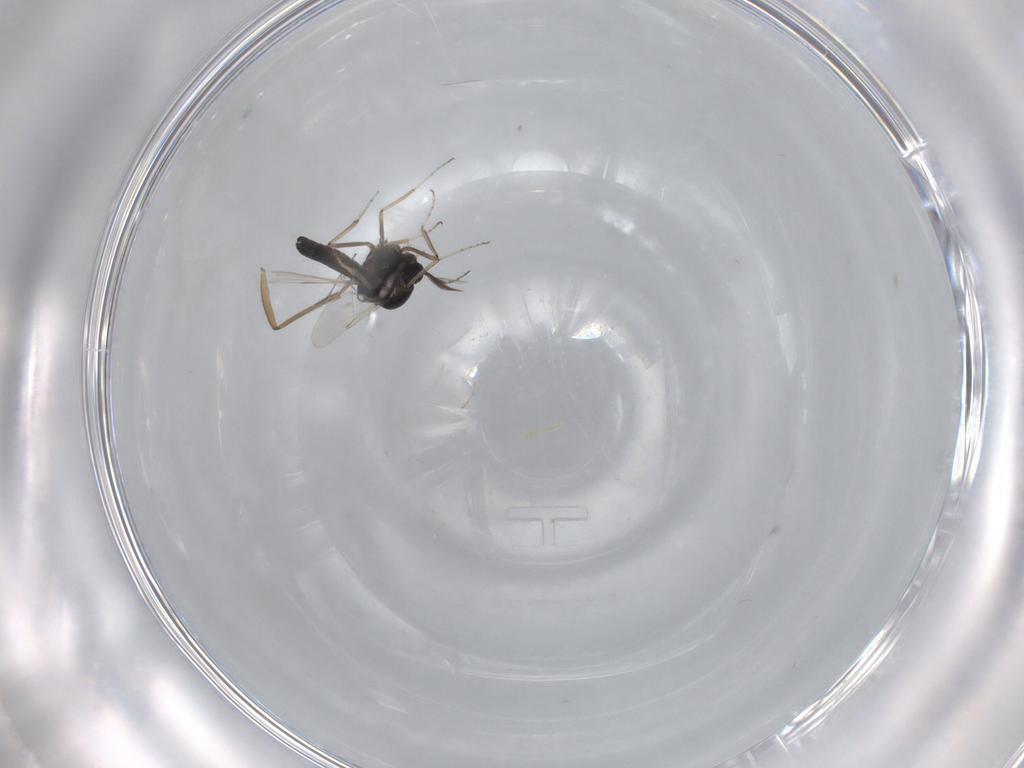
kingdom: Animalia
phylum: Arthropoda
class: Insecta
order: Diptera
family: Ceratopogonidae
